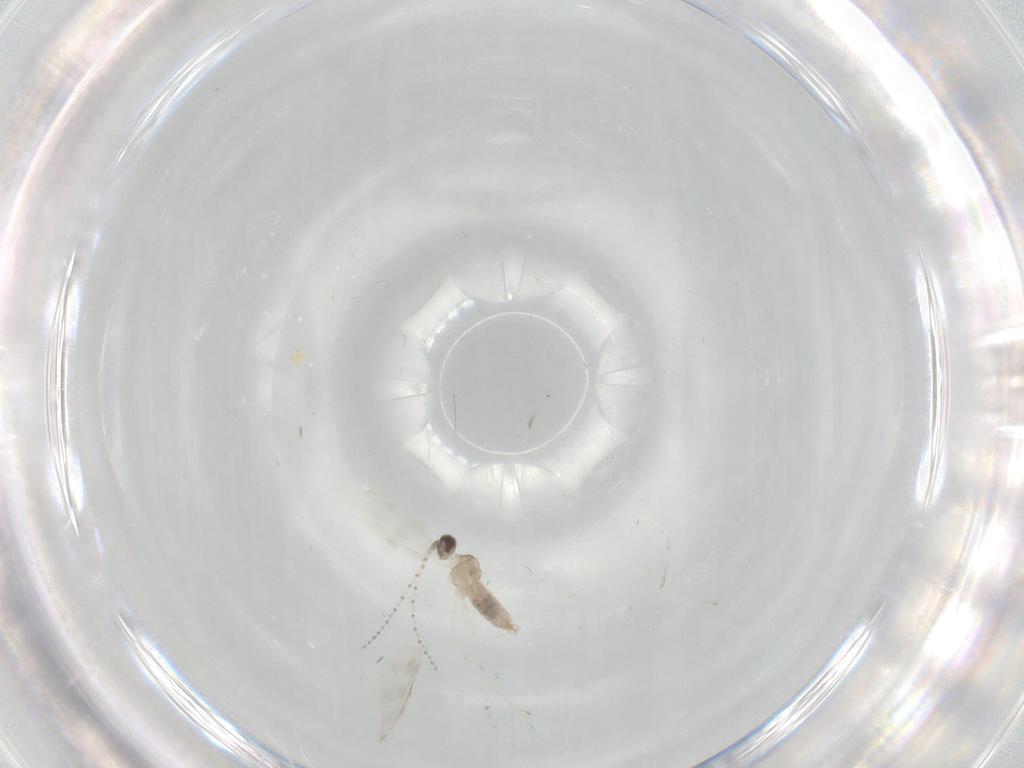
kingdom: Animalia
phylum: Arthropoda
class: Insecta
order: Diptera
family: Cecidomyiidae
